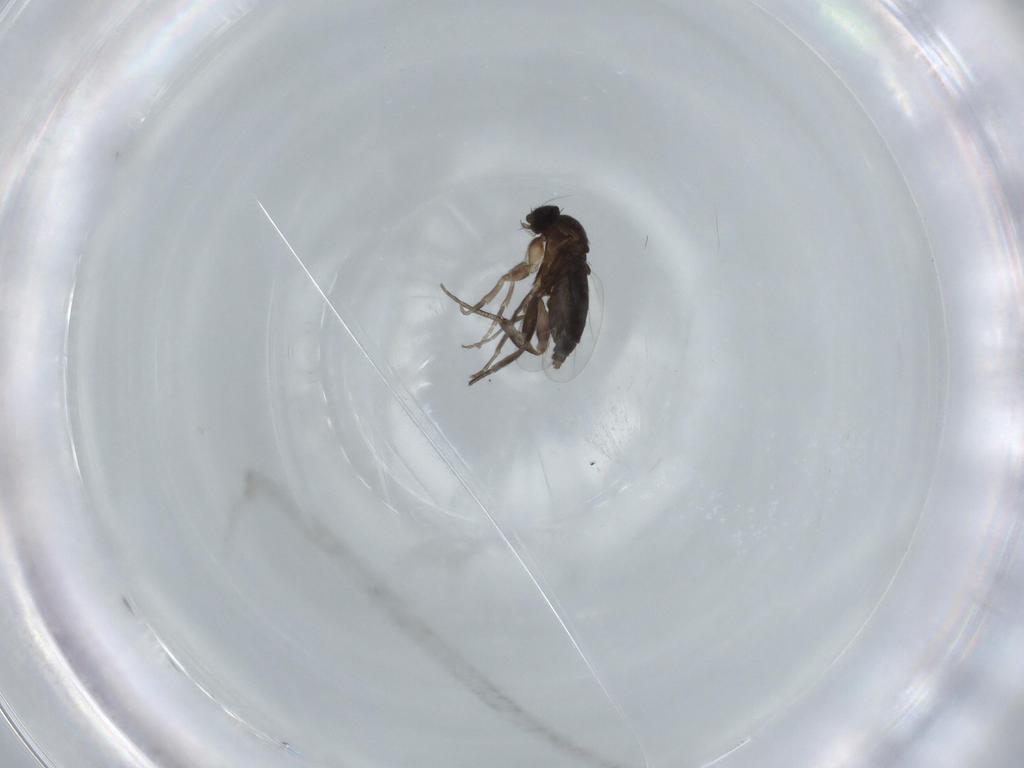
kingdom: Animalia
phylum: Arthropoda
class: Insecta
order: Diptera
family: Phoridae
